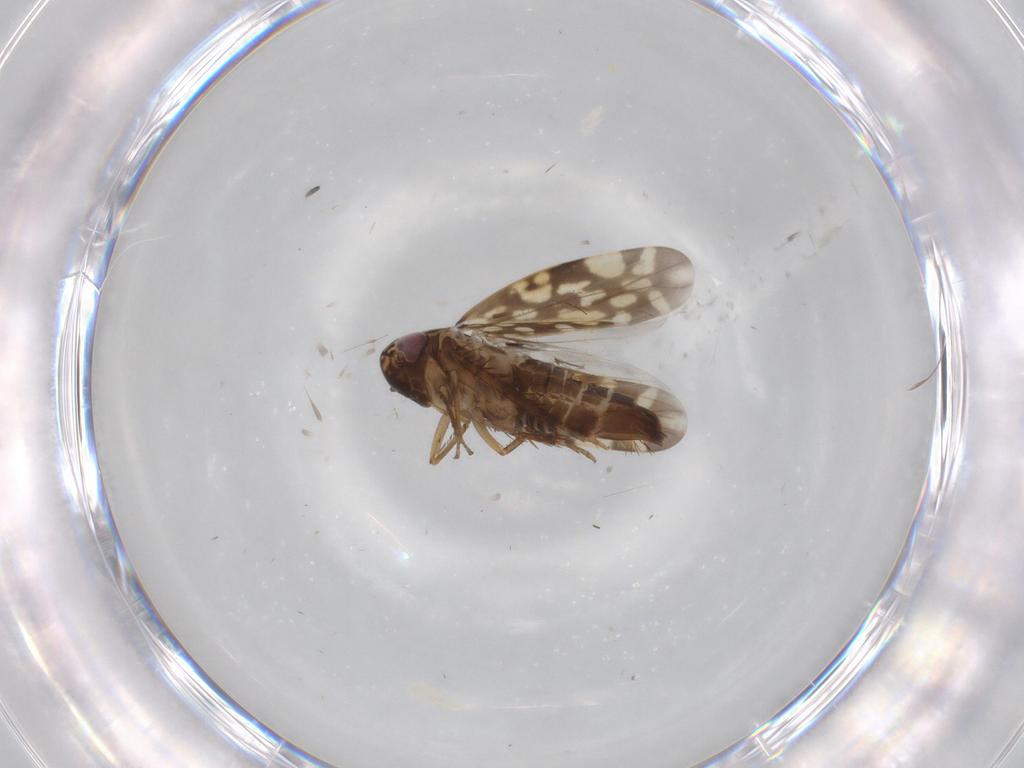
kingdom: Animalia
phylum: Arthropoda
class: Insecta
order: Hemiptera
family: Cicadellidae
